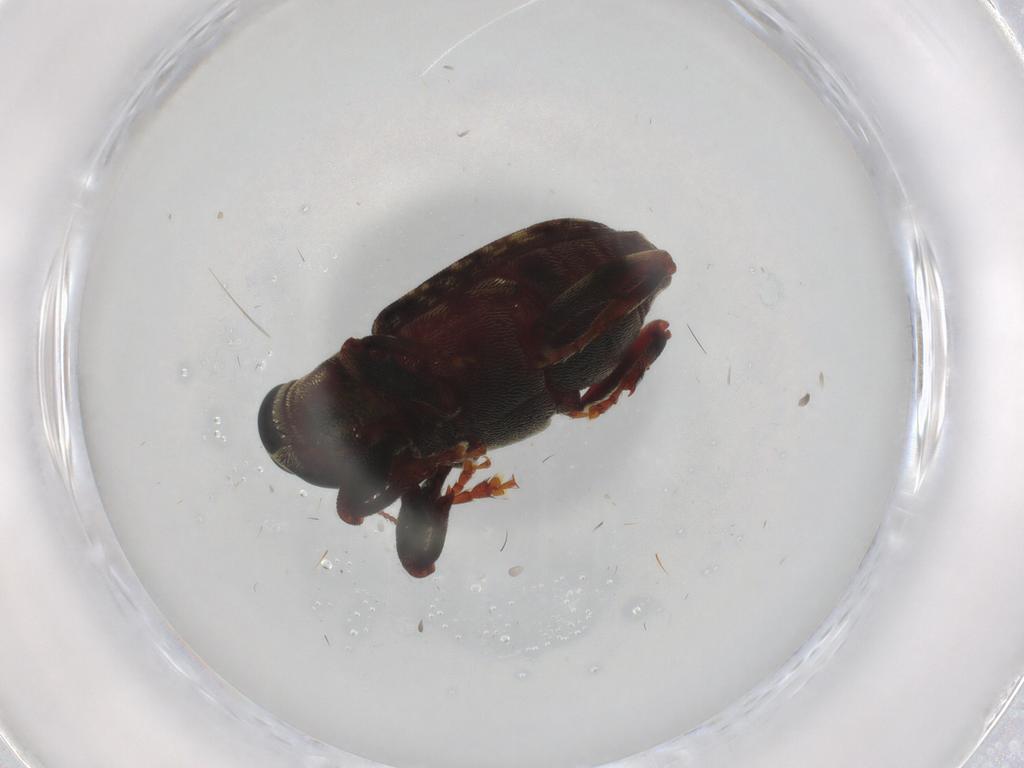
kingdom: Animalia
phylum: Arthropoda
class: Insecta
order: Coleoptera
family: Curculionidae
